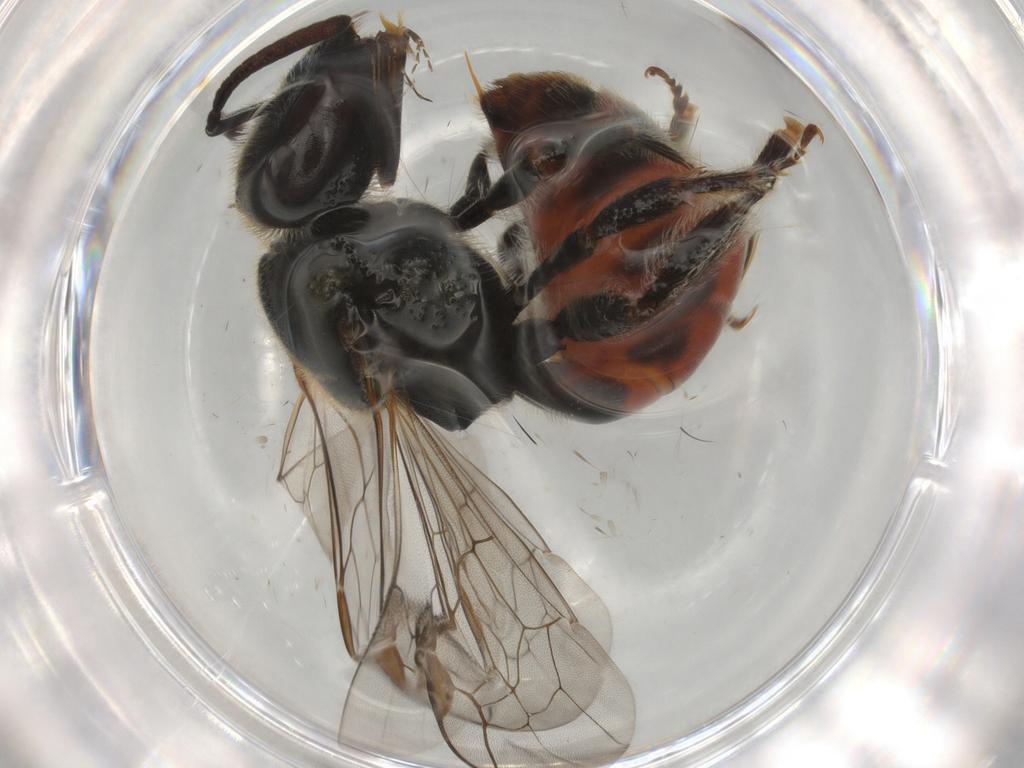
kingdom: Animalia
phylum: Arthropoda
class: Insecta
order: Hymenoptera
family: Halictidae
